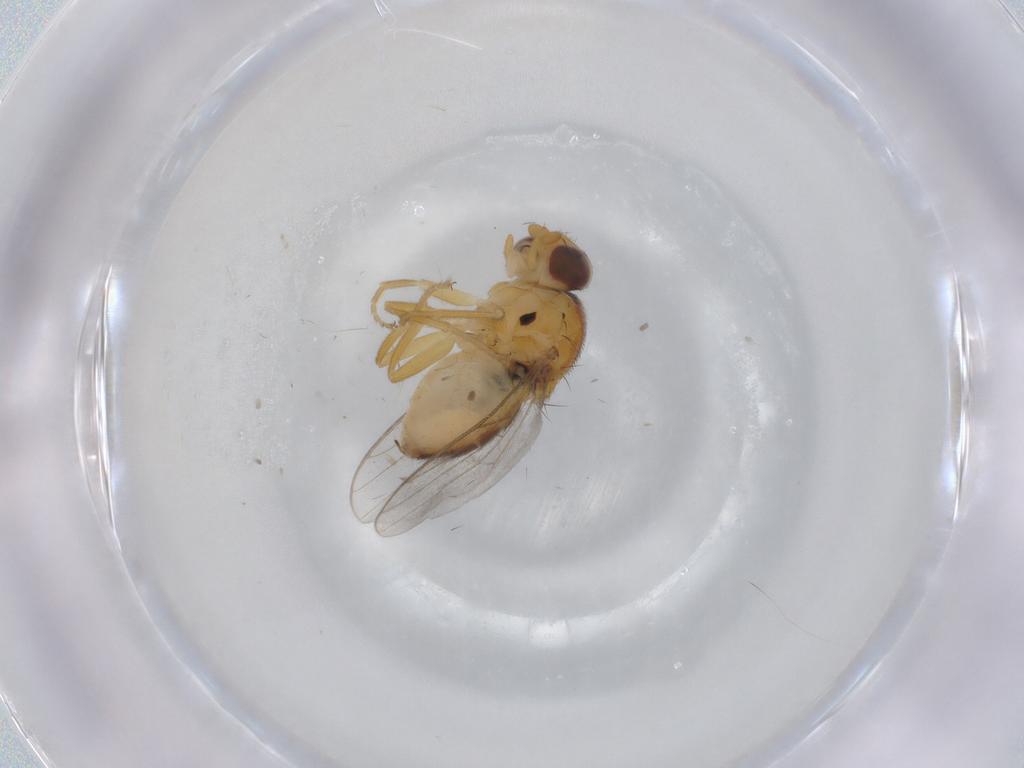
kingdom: Animalia
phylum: Arthropoda
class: Insecta
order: Diptera
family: Chloropidae
